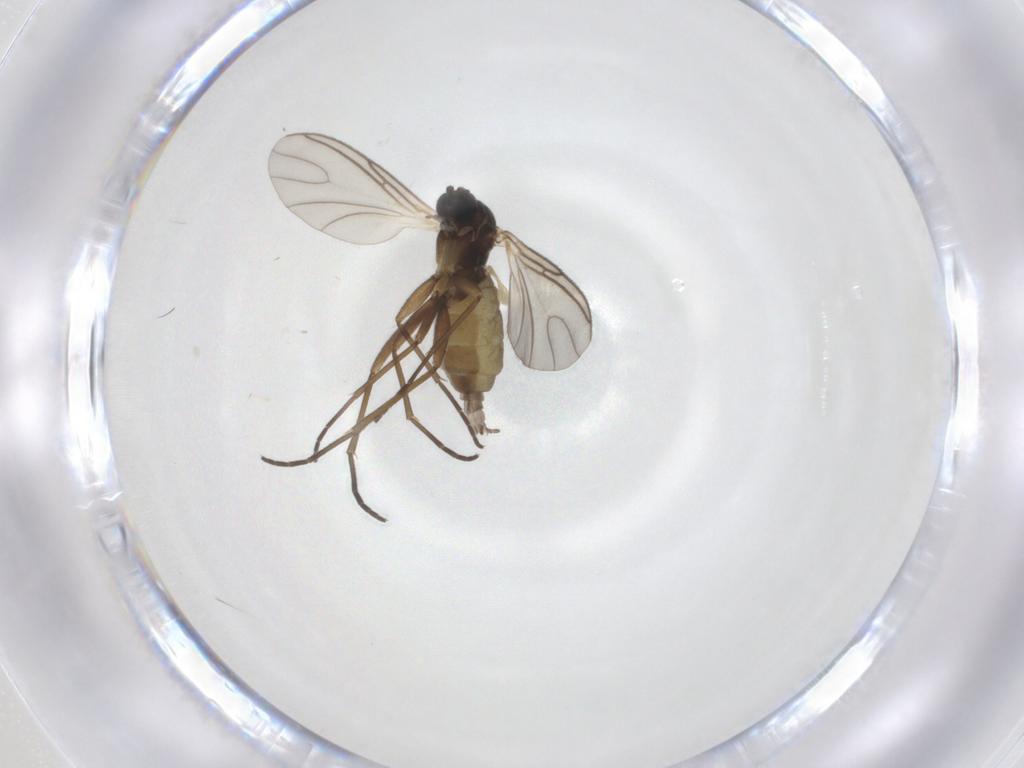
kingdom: Animalia
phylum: Arthropoda
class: Insecta
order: Diptera
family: Sciaridae
